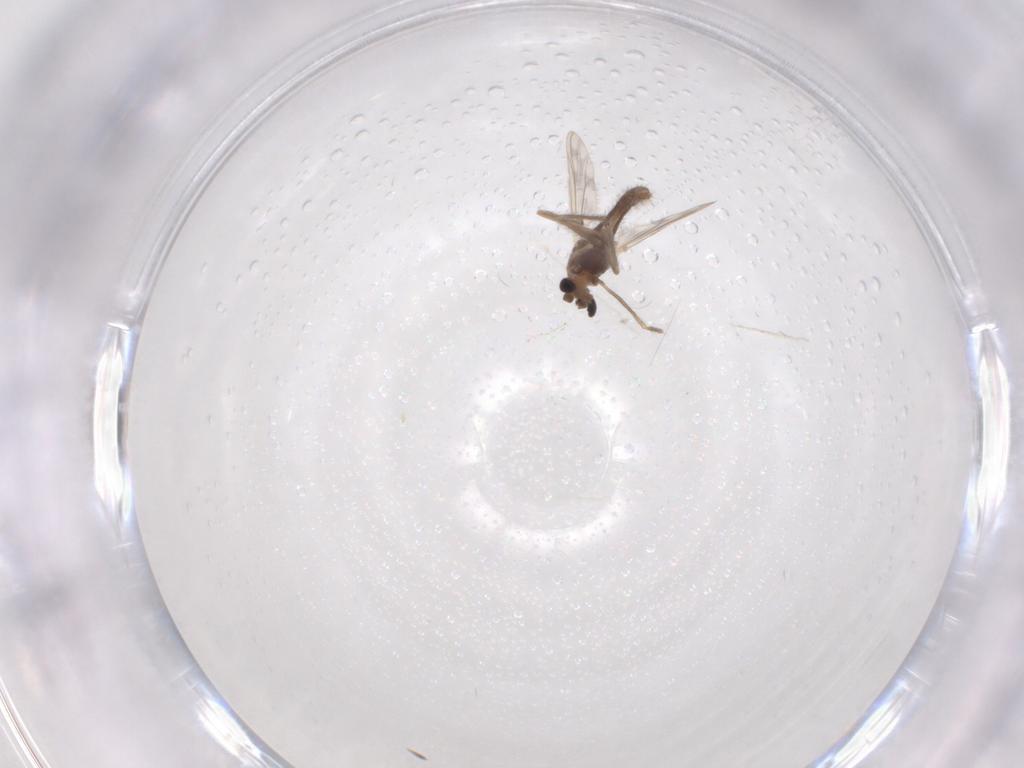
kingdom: Animalia
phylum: Arthropoda
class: Insecta
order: Diptera
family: Chironomidae
